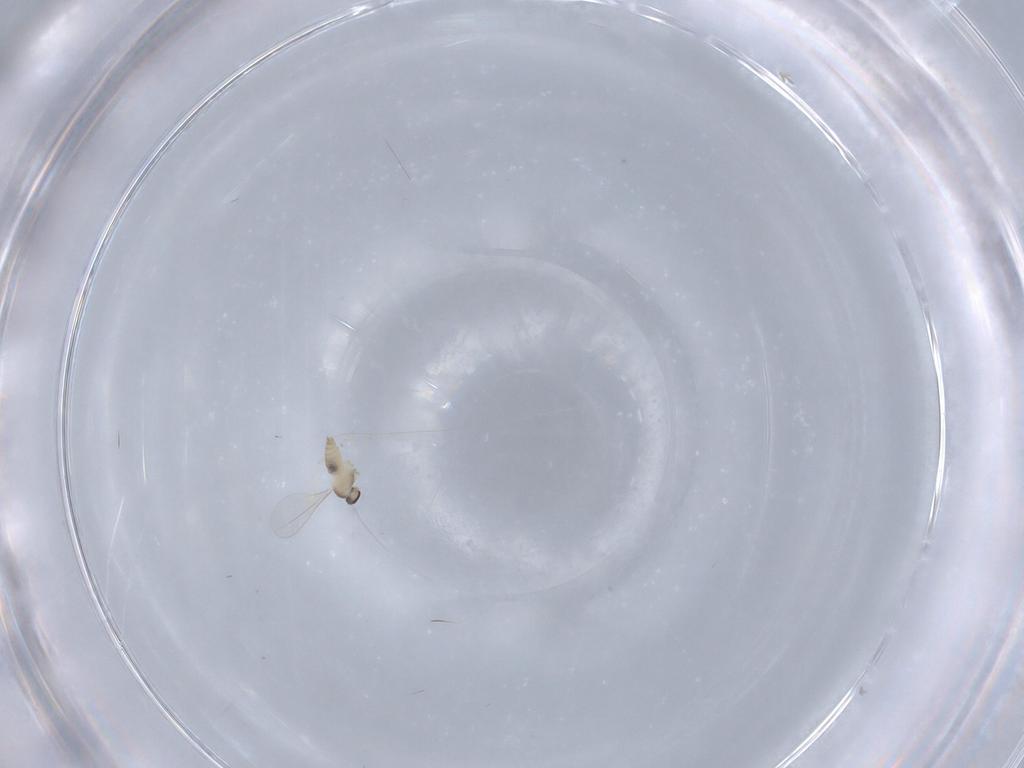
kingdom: Animalia
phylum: Arthropoda
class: Insecta
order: Diptera
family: Cecidomyiidae
